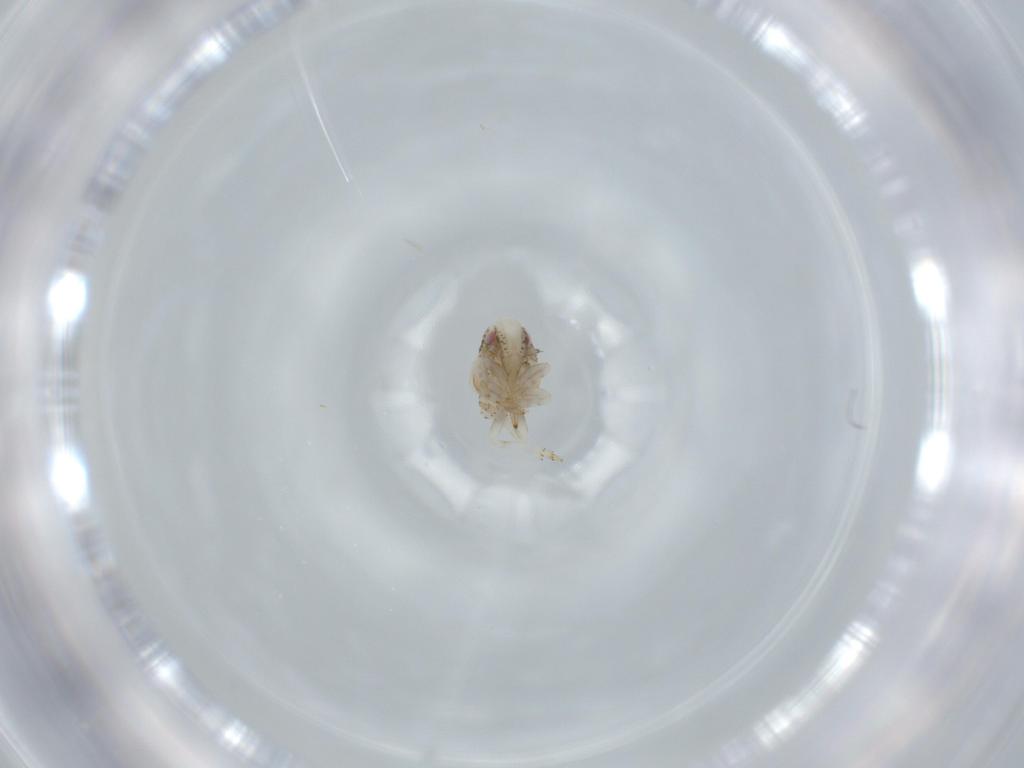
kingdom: Animalia
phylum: Arthropoda
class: Insecta
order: Hemiptera
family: Acanaloniidae
